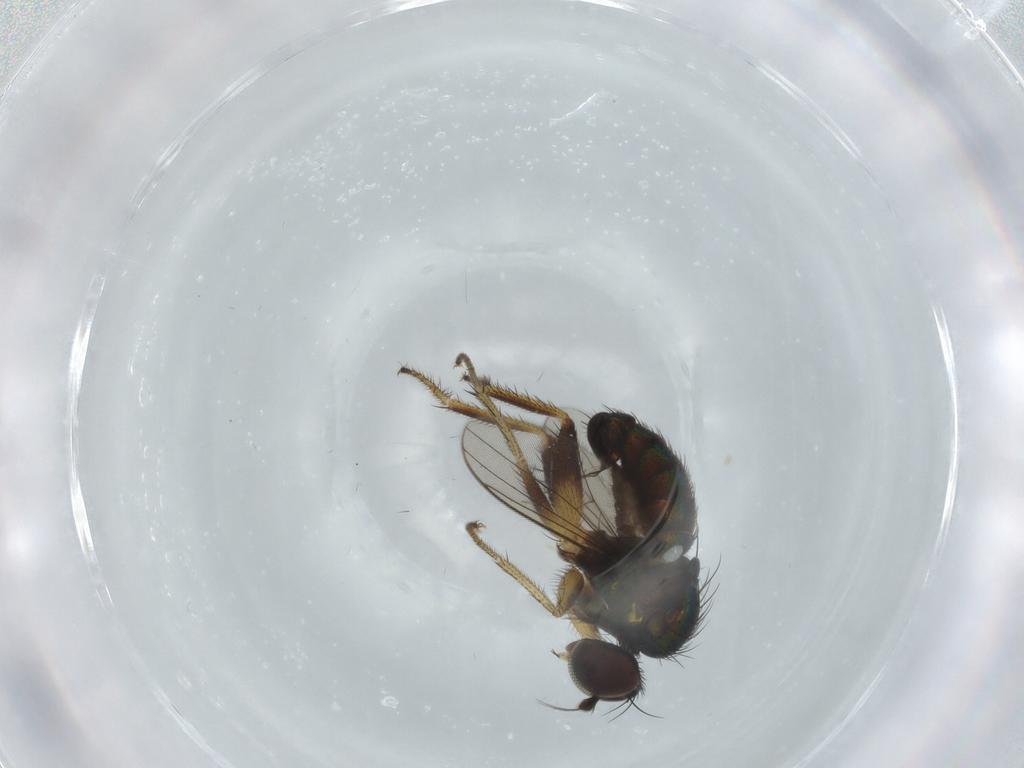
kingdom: Animalia
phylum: Arthropoda
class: Insecta
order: Diptera
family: Dolichopodidae
